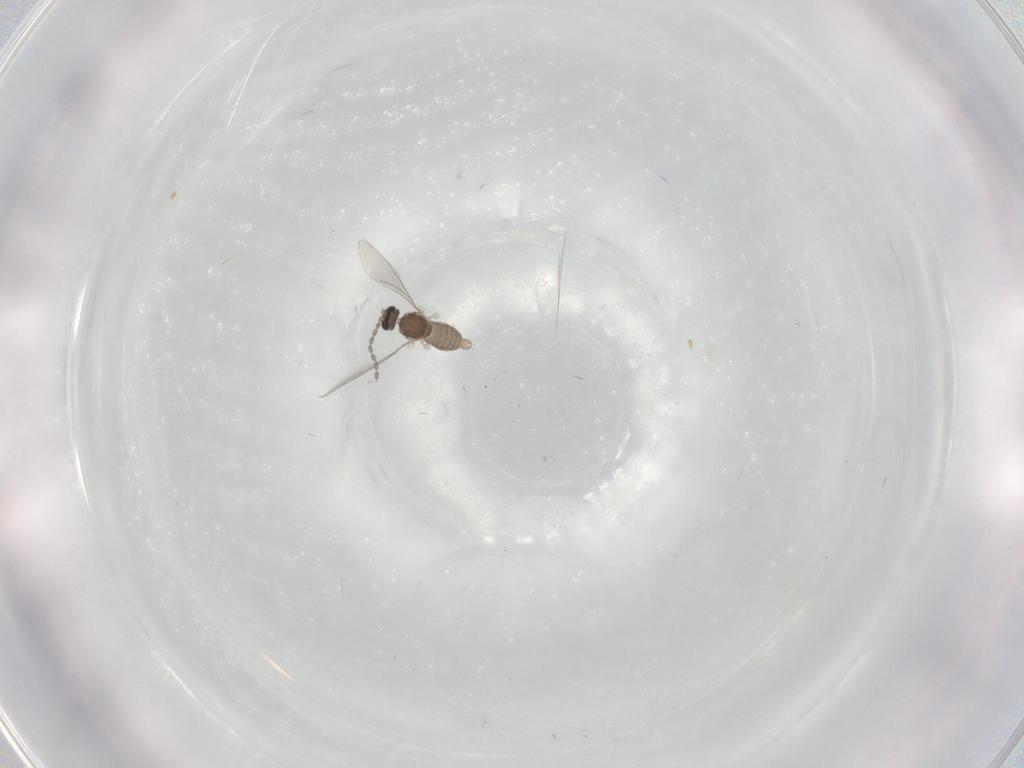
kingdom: Animalia
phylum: Arthropoda
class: Insecta
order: Diptera
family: Cecidomyiidae
